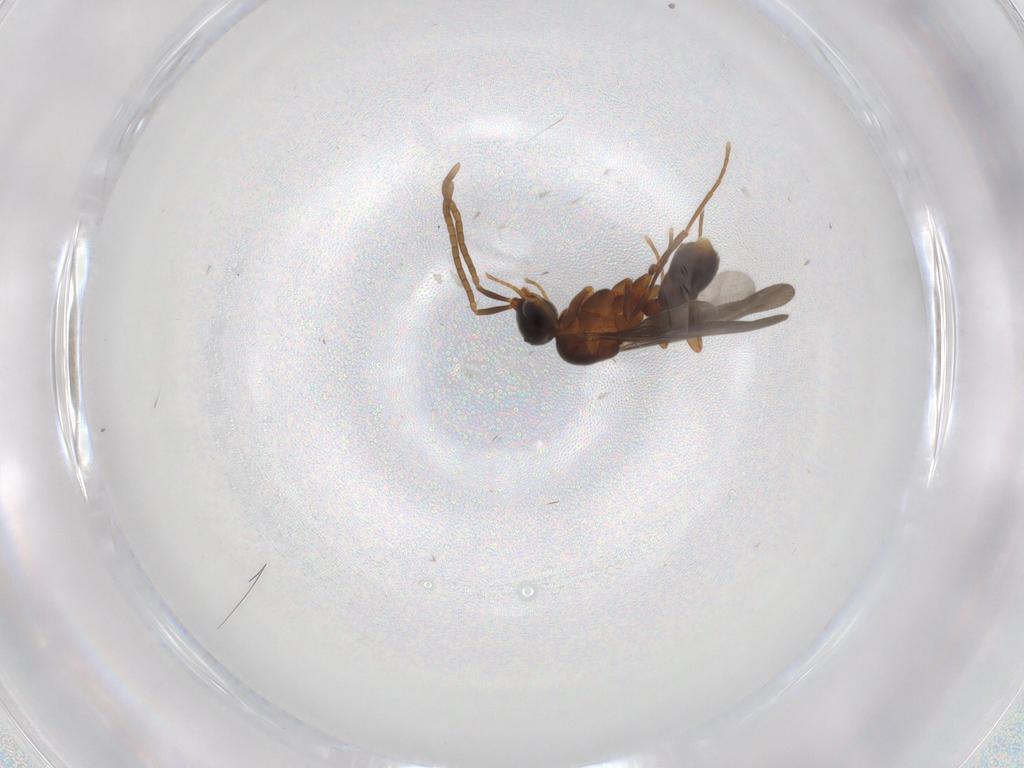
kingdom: Animalia
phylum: Arthropoda
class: Insecta
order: Hymenoptera
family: Formicidae
